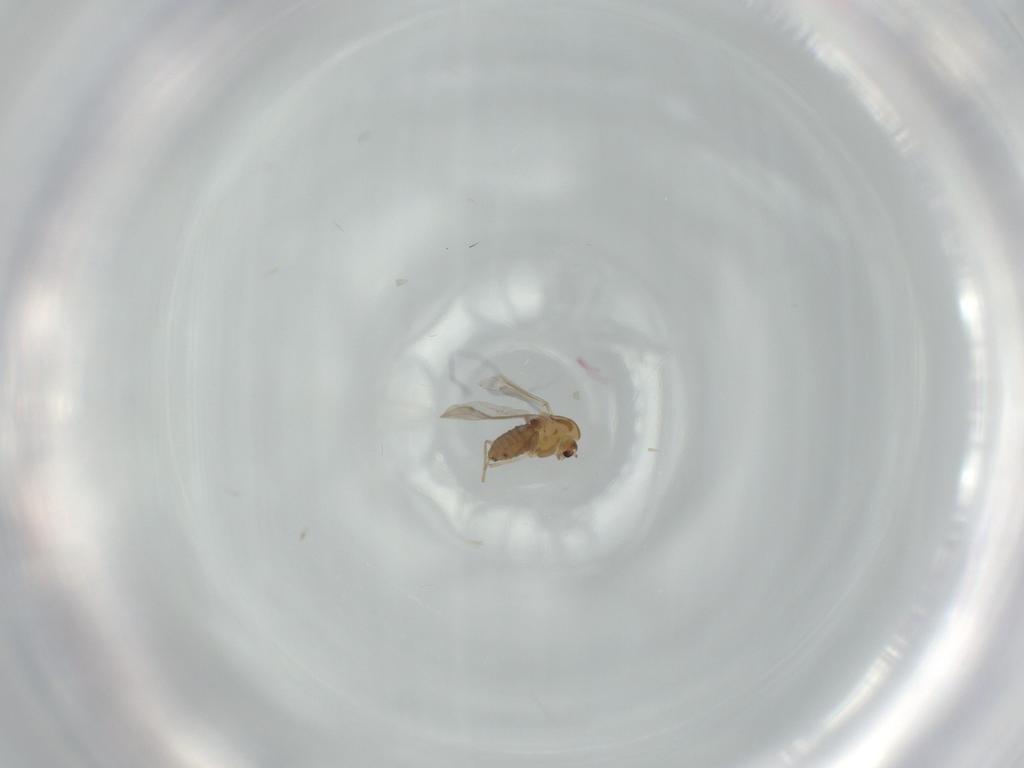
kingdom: Animalia
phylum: Arthropoda
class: Insecta
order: Diptera
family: Chironomidae
